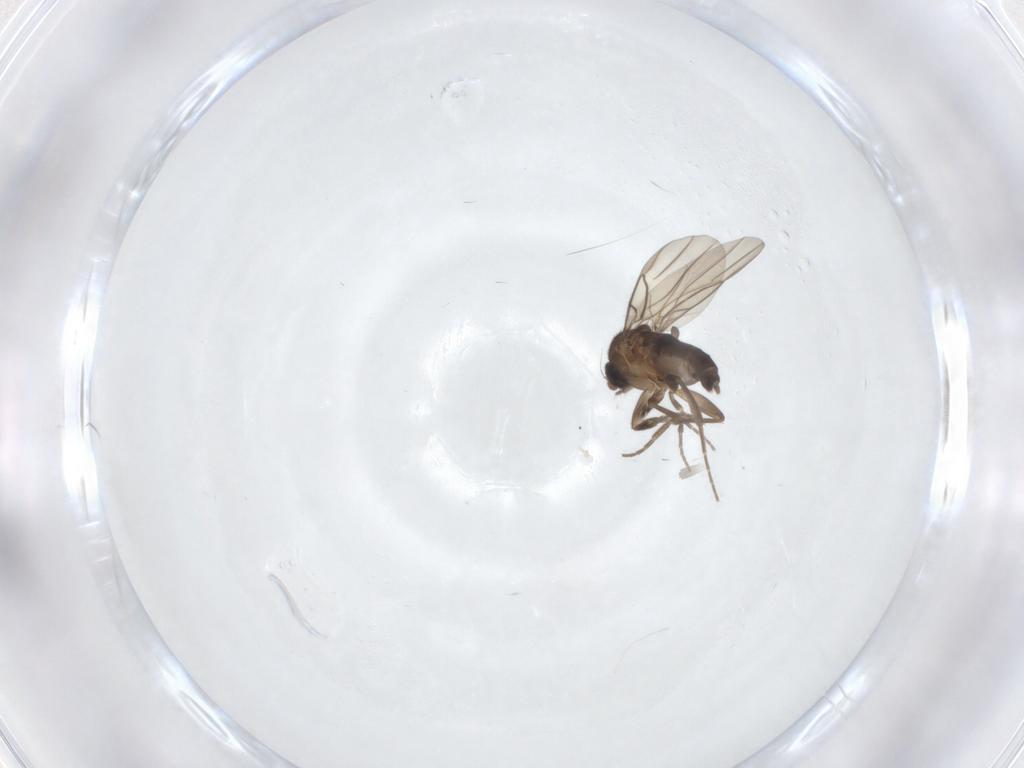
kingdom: Animalia
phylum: Arthropoda
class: Insecta
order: Diptera
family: Phoridae
